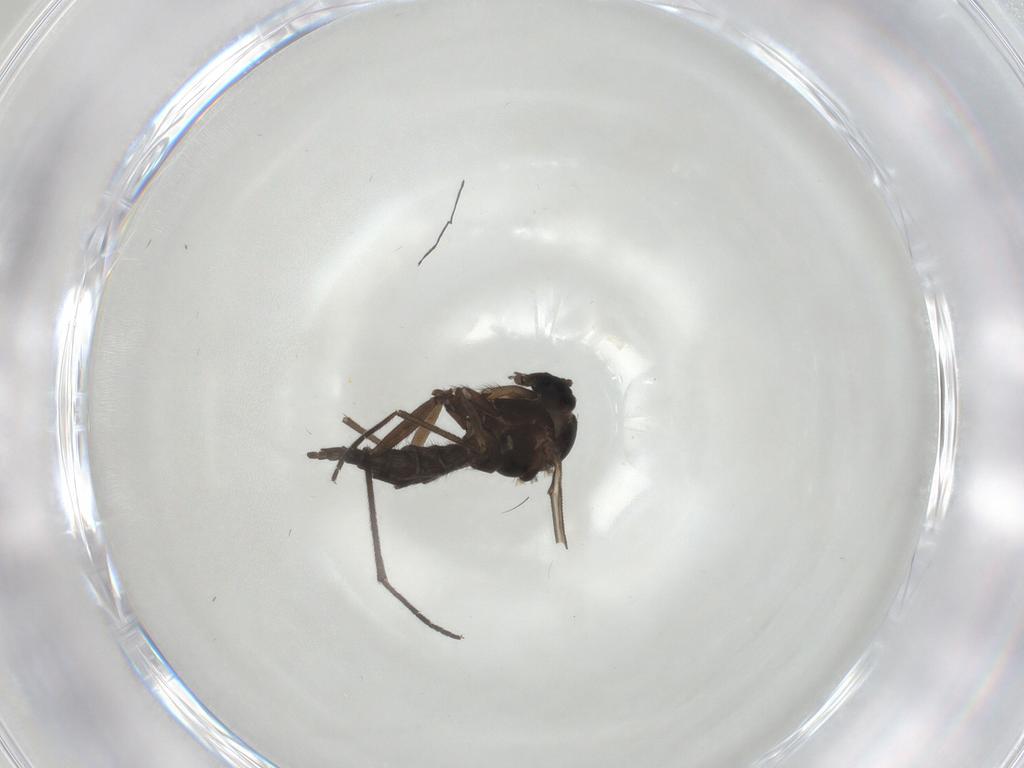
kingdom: Animalia
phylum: Arthropoda
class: Insecta
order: Diptera
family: Sciaridae
